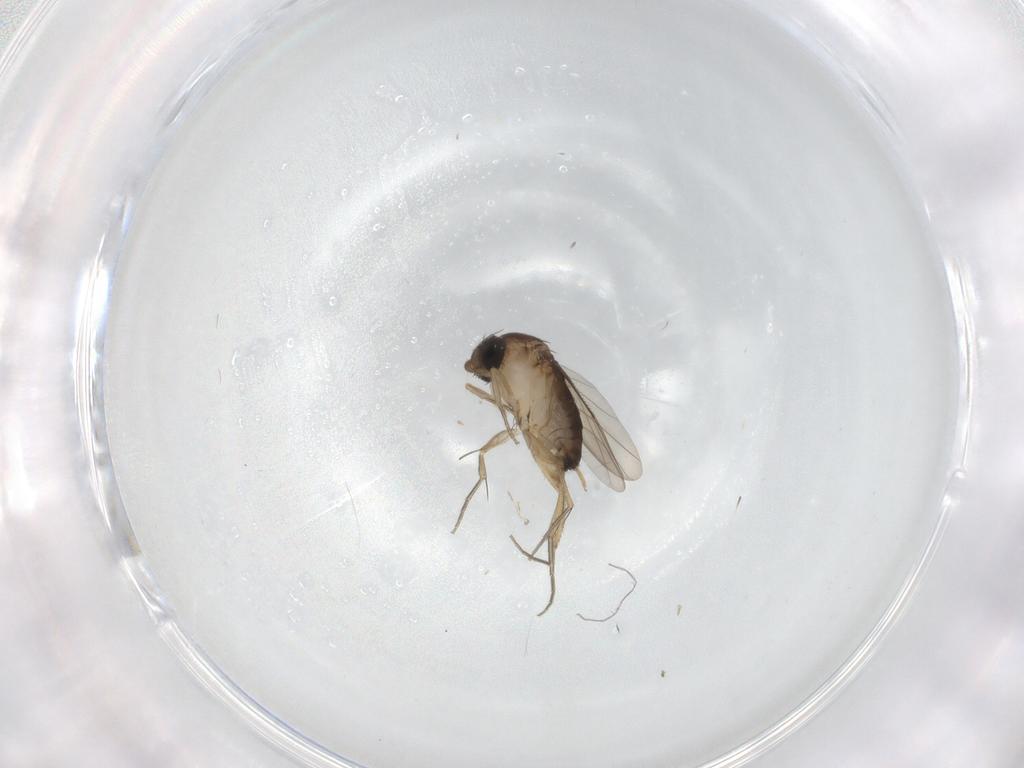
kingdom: Animalia
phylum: Arthropoda
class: Insecta
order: Diptera
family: Phoridae
